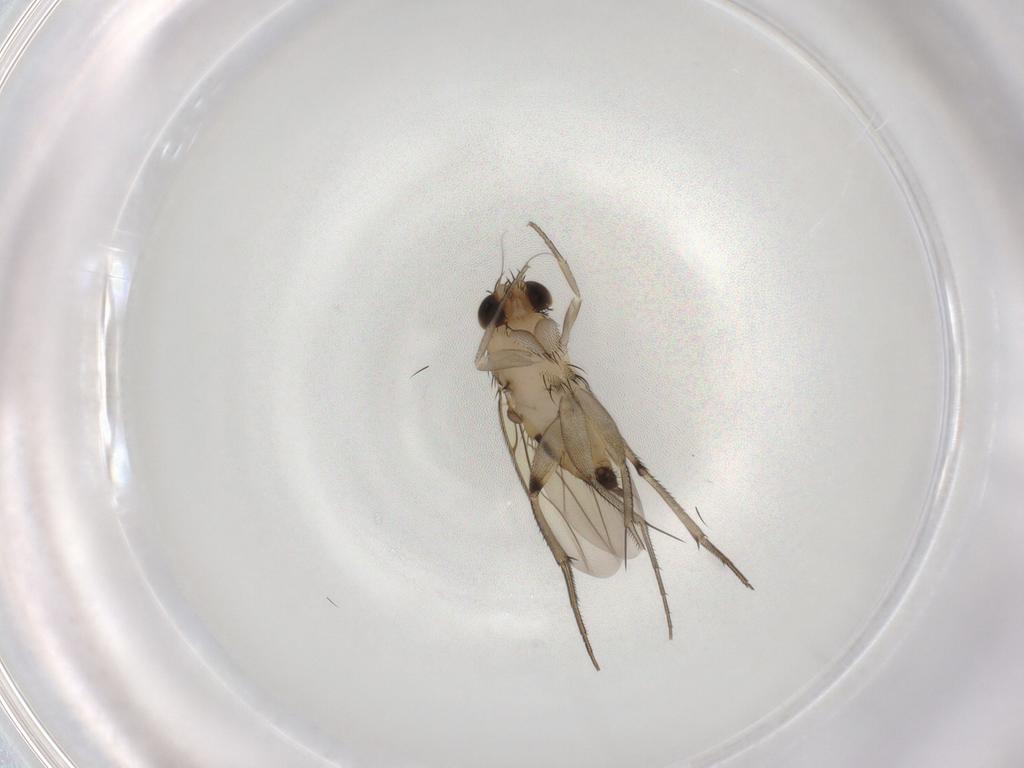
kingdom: Animalia
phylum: Arthropoda
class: Insecta
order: Diptera
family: Phoridae
